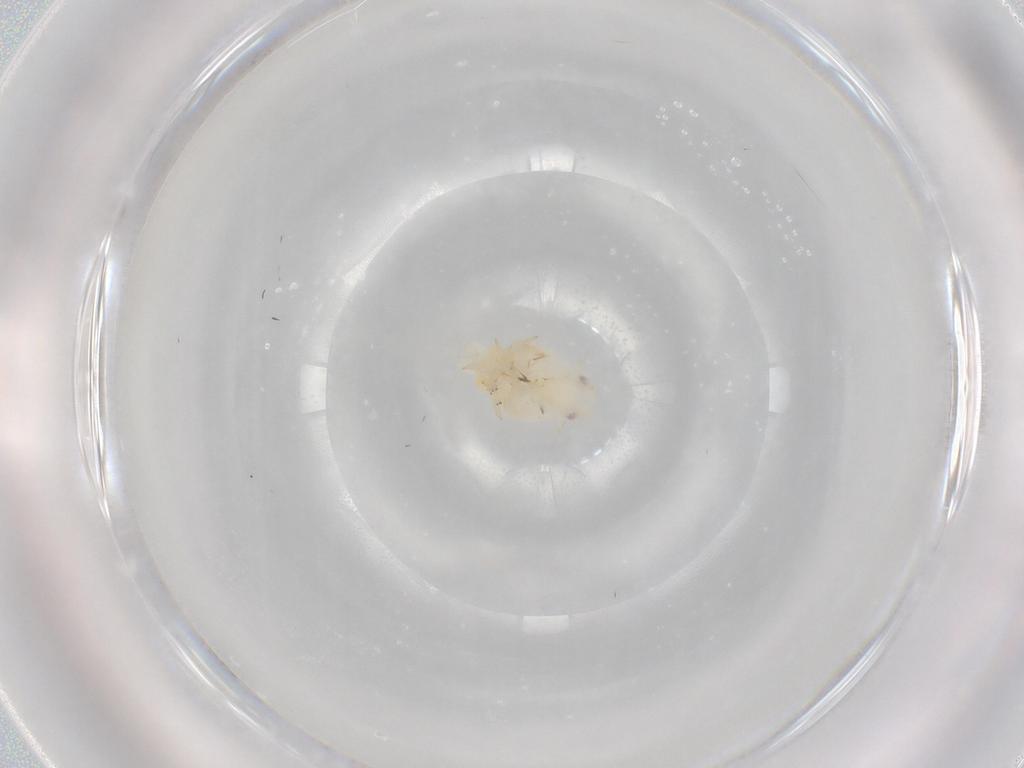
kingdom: Animalia
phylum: Arthropoda
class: Insecta
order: Hemiptera
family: Flatidae
